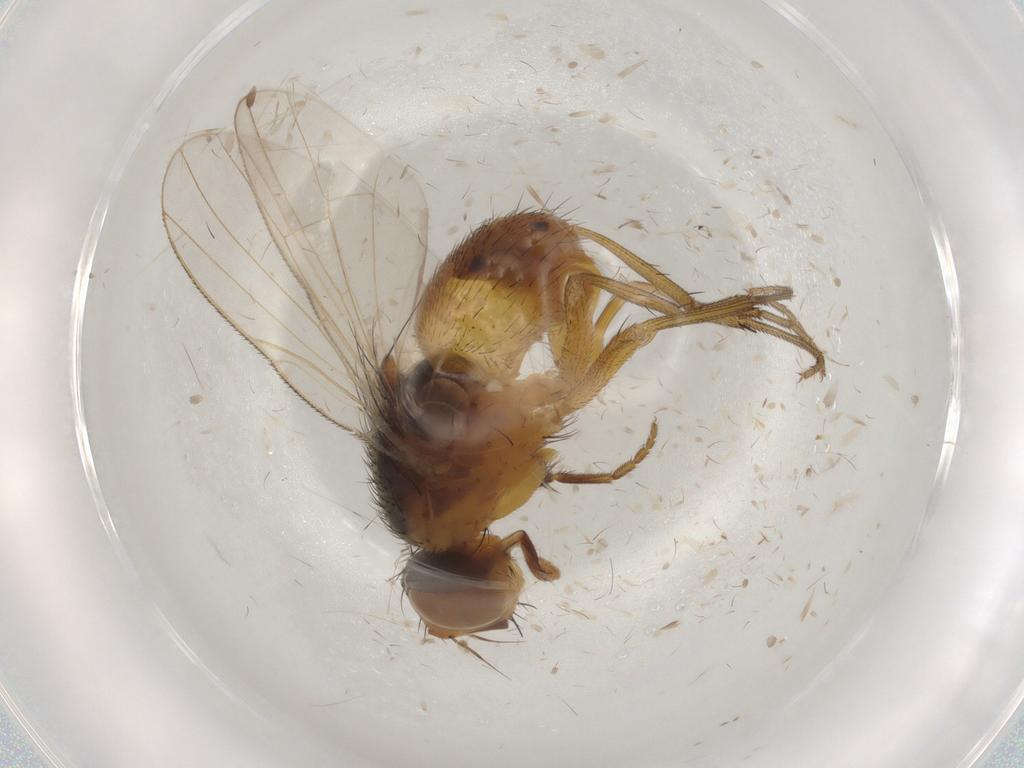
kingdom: Animalia
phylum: Arthropoda
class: Insecta
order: Diptera
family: Muscidae
